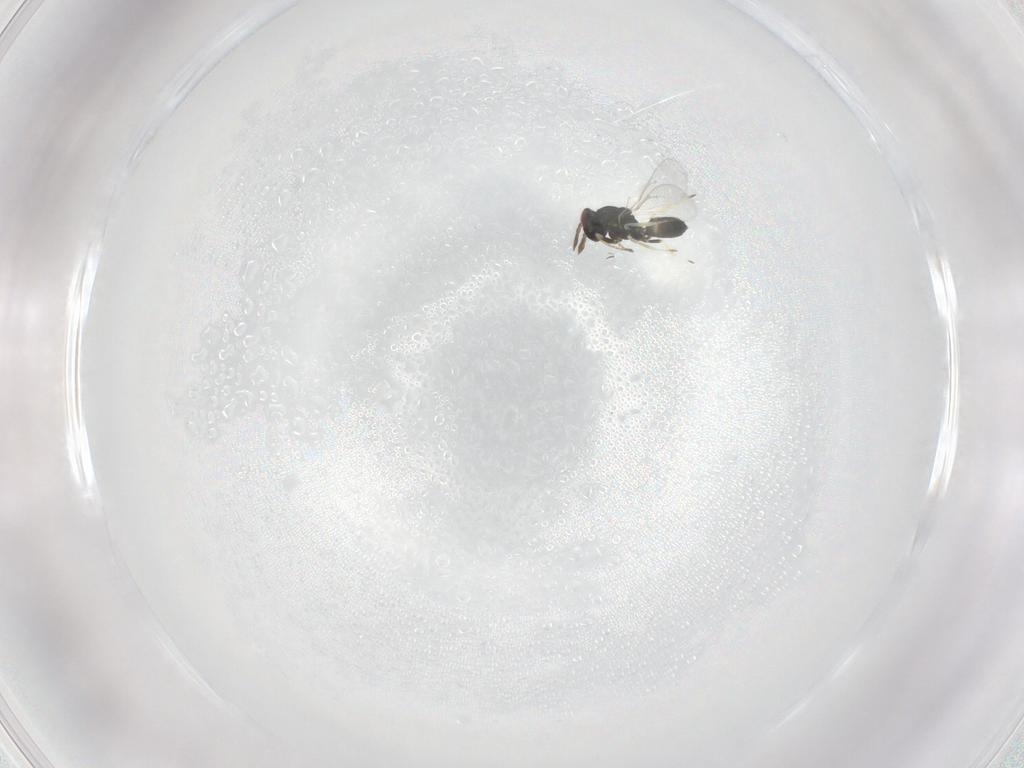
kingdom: Animalia
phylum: Arthropoda
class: Insecta
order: Hymenoptera
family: Eulophidae
